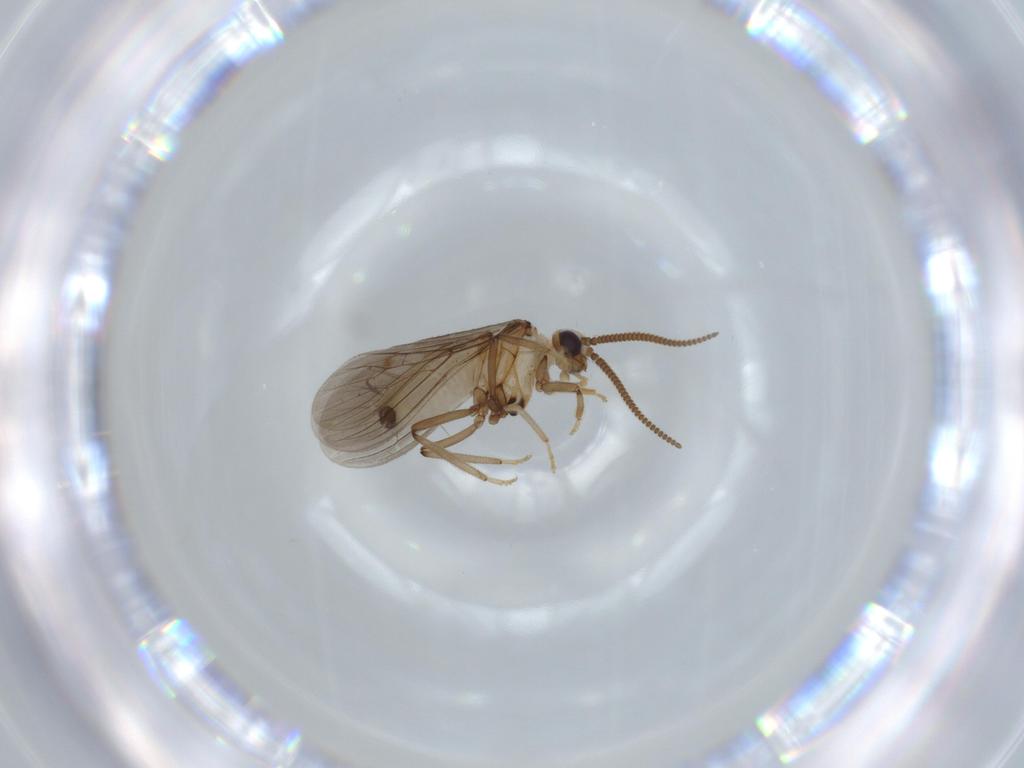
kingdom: Animalia
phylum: Arthropoda
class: Insecta
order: Neuroptera
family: Coniopterygidae
